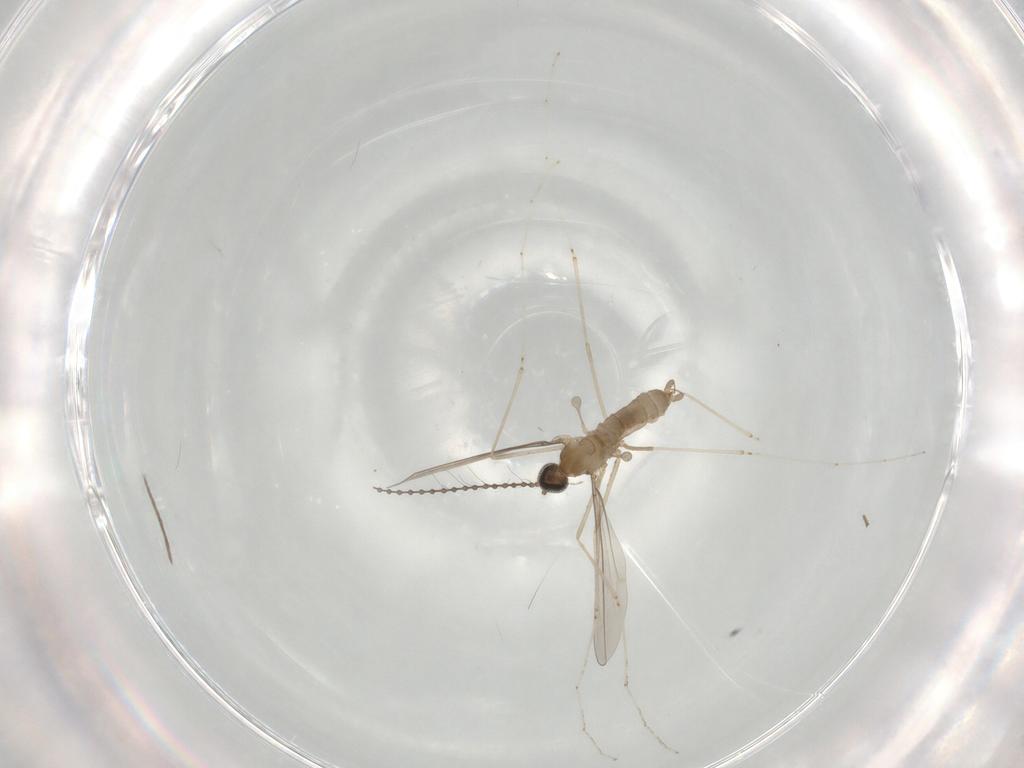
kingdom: Animalia
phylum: Arthropoda
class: Insecta
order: Diptera
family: Cecidomyiidae
